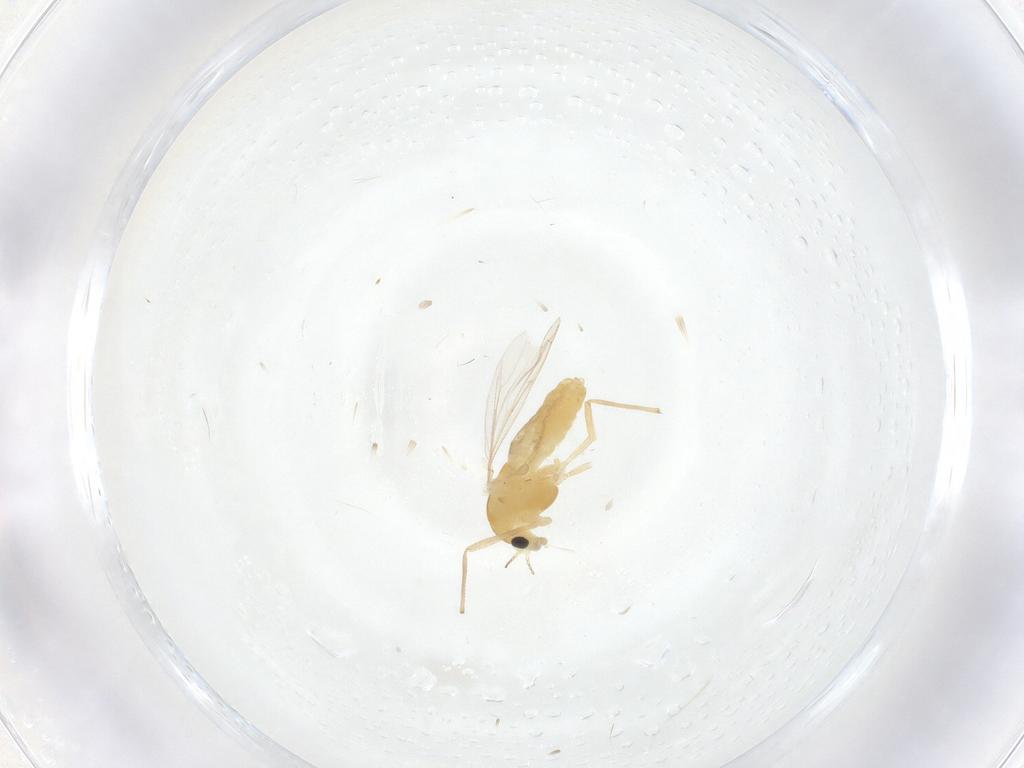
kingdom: Animalia
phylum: Arthropoda
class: Insecta
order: Diptera
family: Chironomidae
